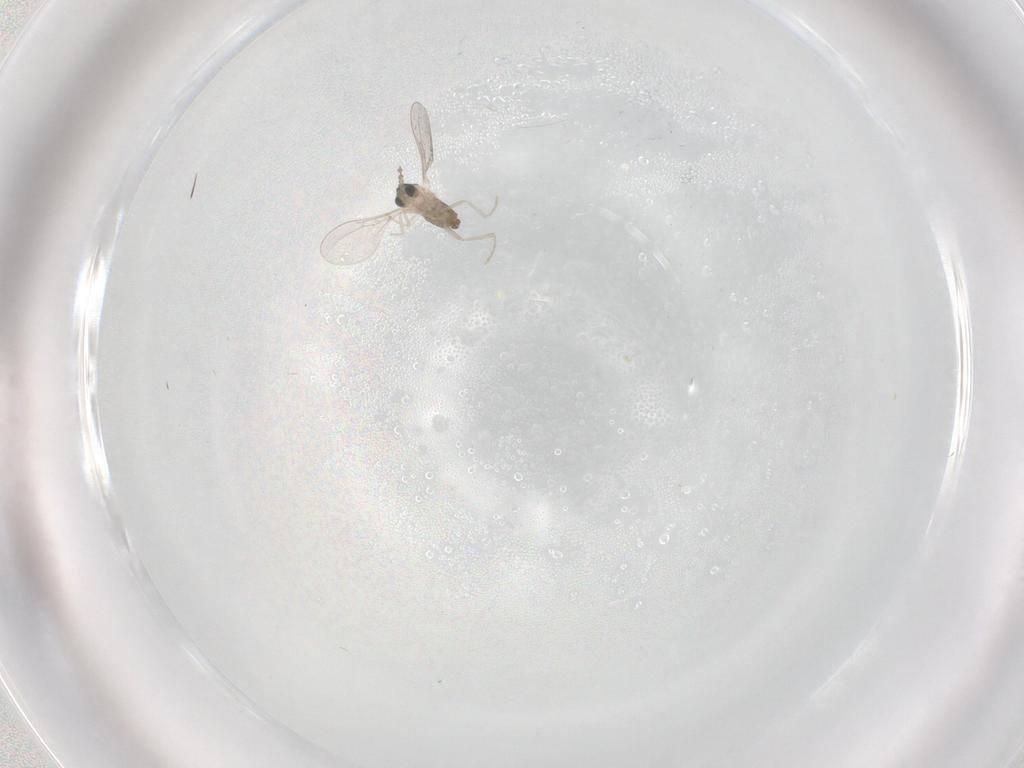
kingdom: Animalia
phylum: Arthropoda
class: Insecta
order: Diptera
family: Cecidomyiidae
